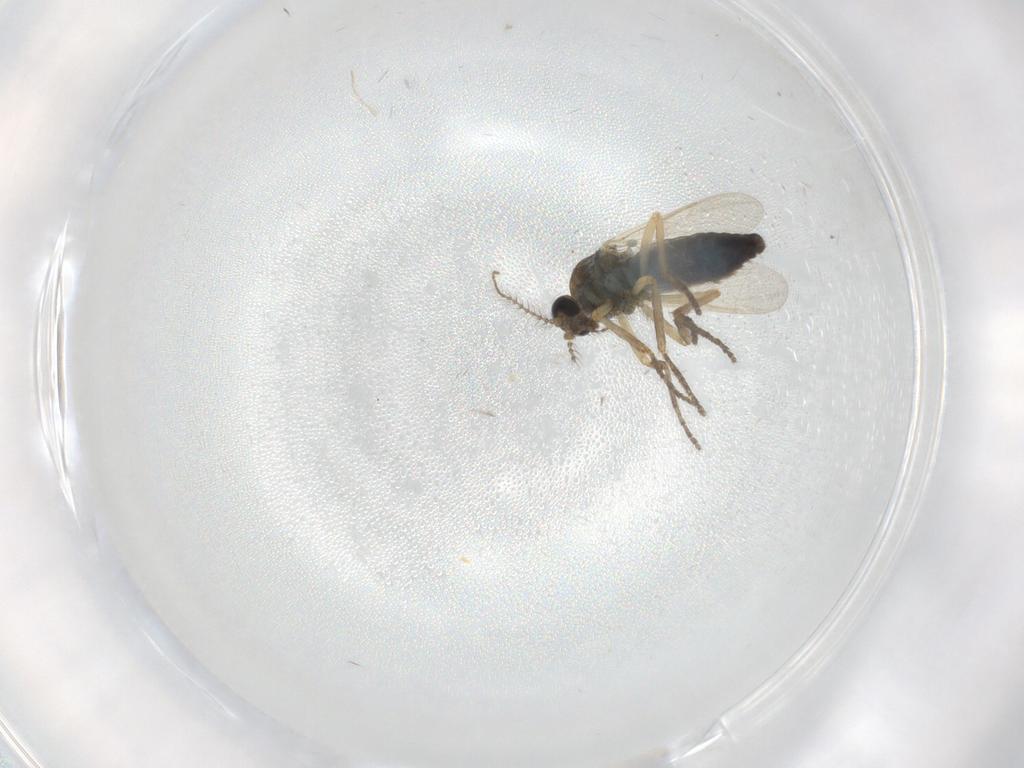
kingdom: Animalia
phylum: Arthropoda
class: Insecta
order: Diptera
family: Ceratopogonidae
